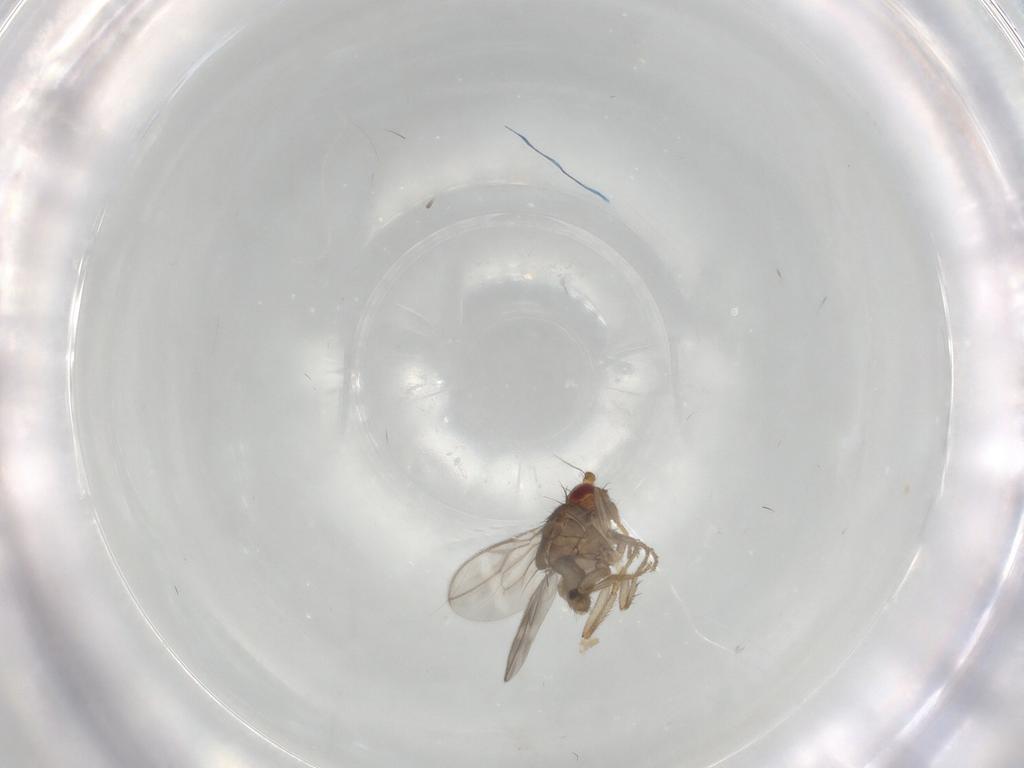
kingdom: Animalia
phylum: Arthropoda
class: Insecta
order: Diptera
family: Sphaeroceridae
